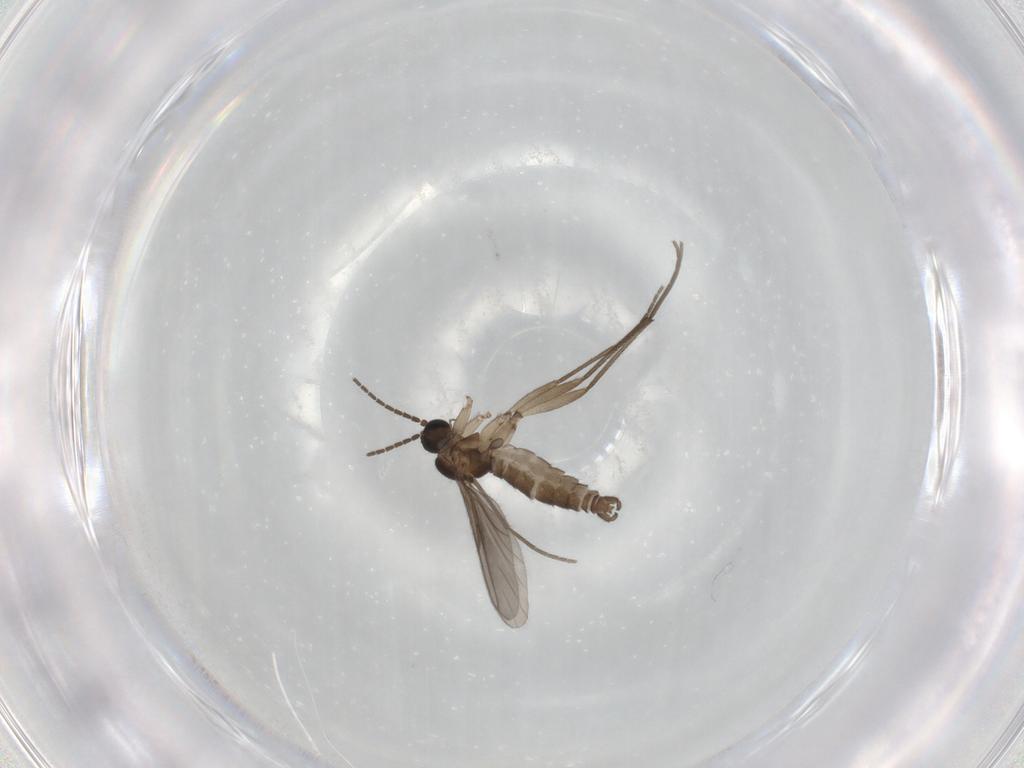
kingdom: Animalia
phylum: Arthropoda
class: Insecta
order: Diptera
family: Sciaridae
